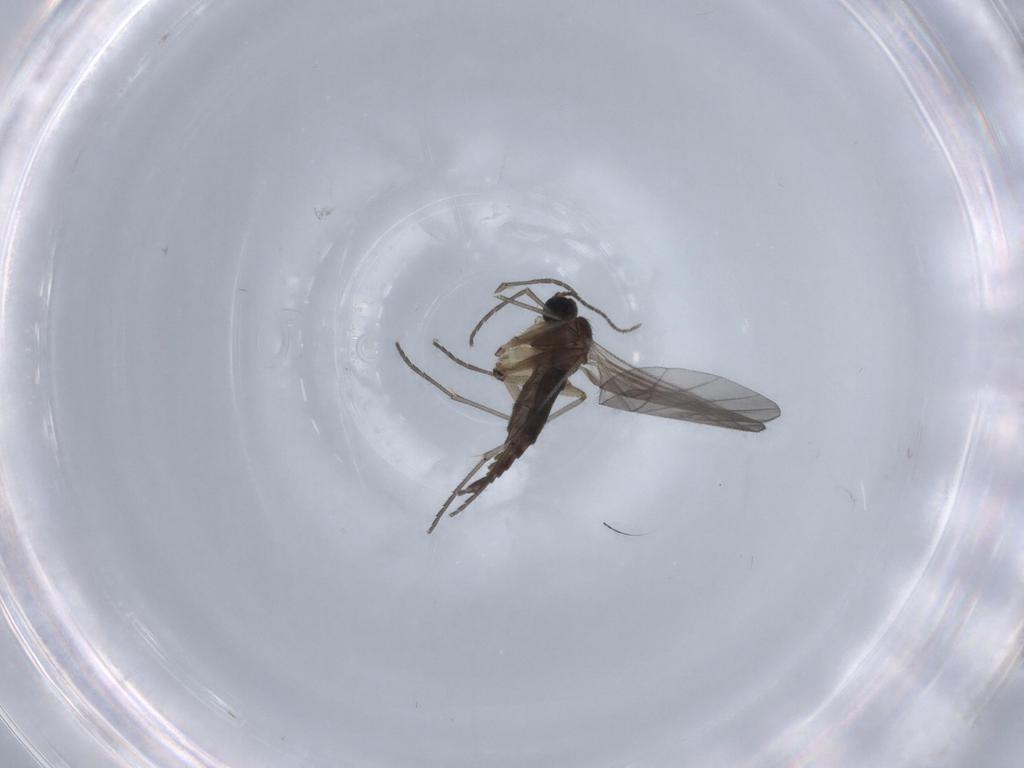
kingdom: Animalia
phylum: Arthropoda
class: Insecta
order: Diptera
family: Sciaridae
